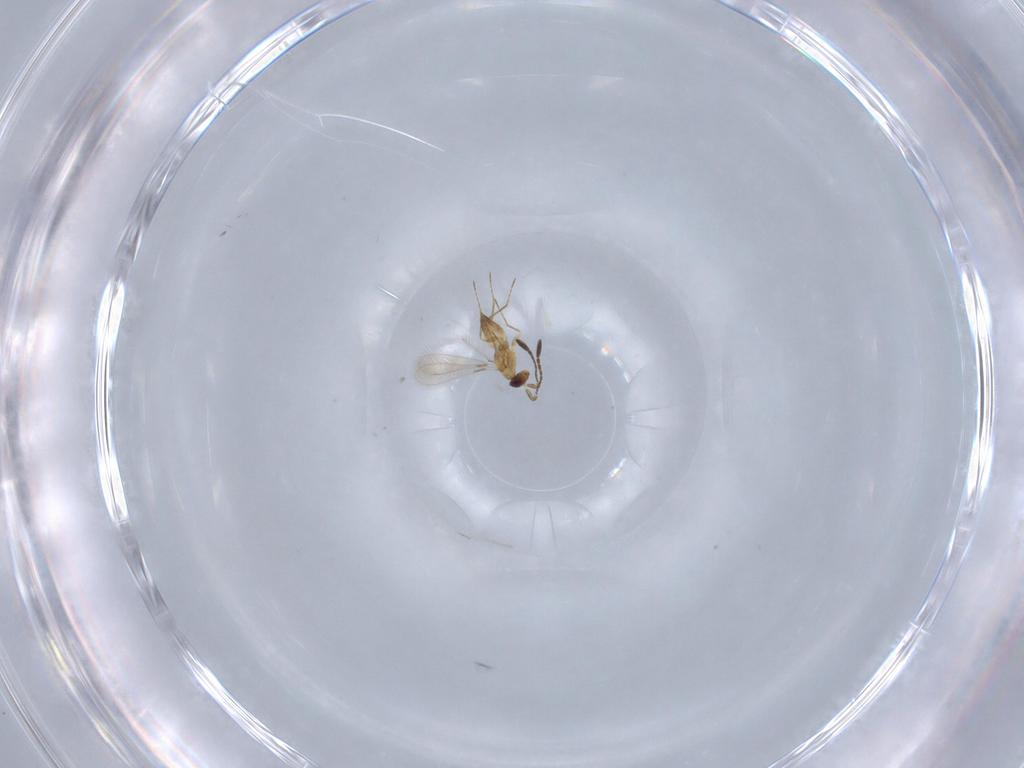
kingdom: Animalia
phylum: Arthropoda
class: Insecta
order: Hymenoptera
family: Mymaridae
